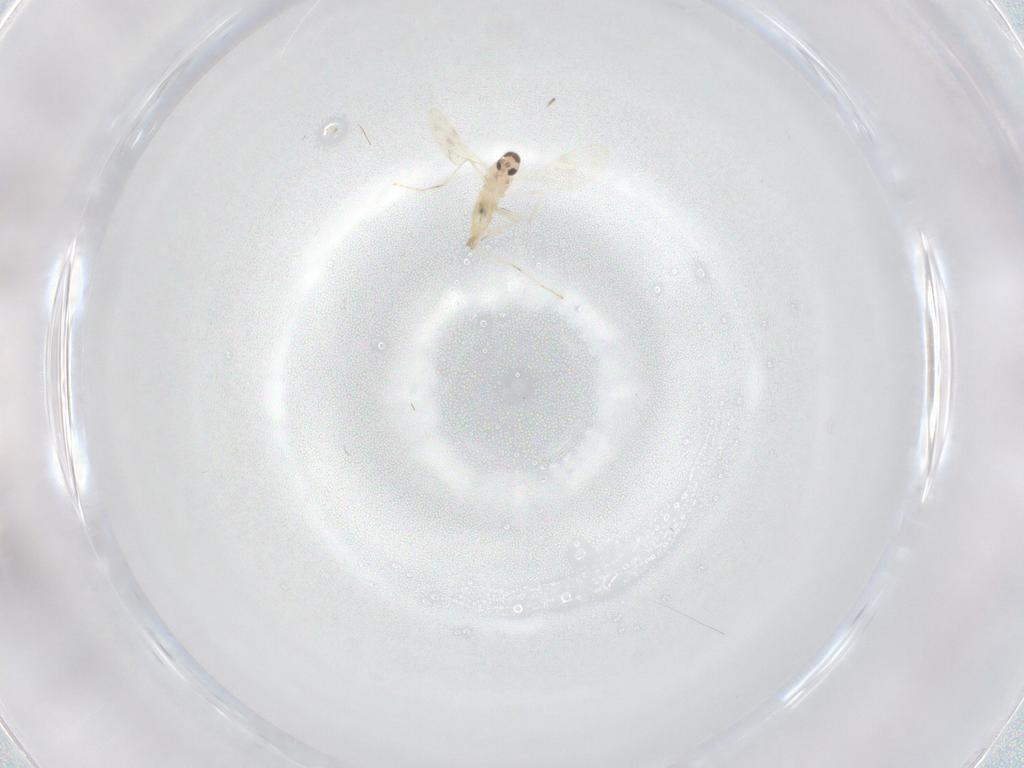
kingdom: Animalia
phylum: Arthropoda
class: Insecta
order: Diptera
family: Cecidomyiidae
